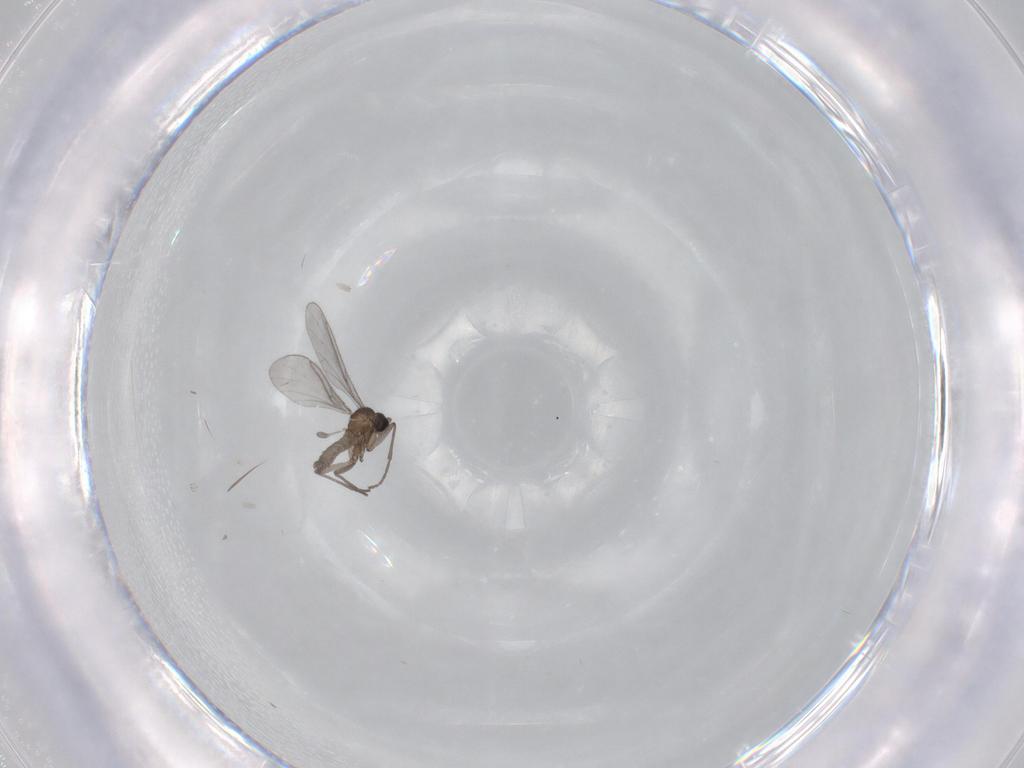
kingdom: Animalia
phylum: Arthropoda
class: Insecta
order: Diptera
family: Sciaridae
